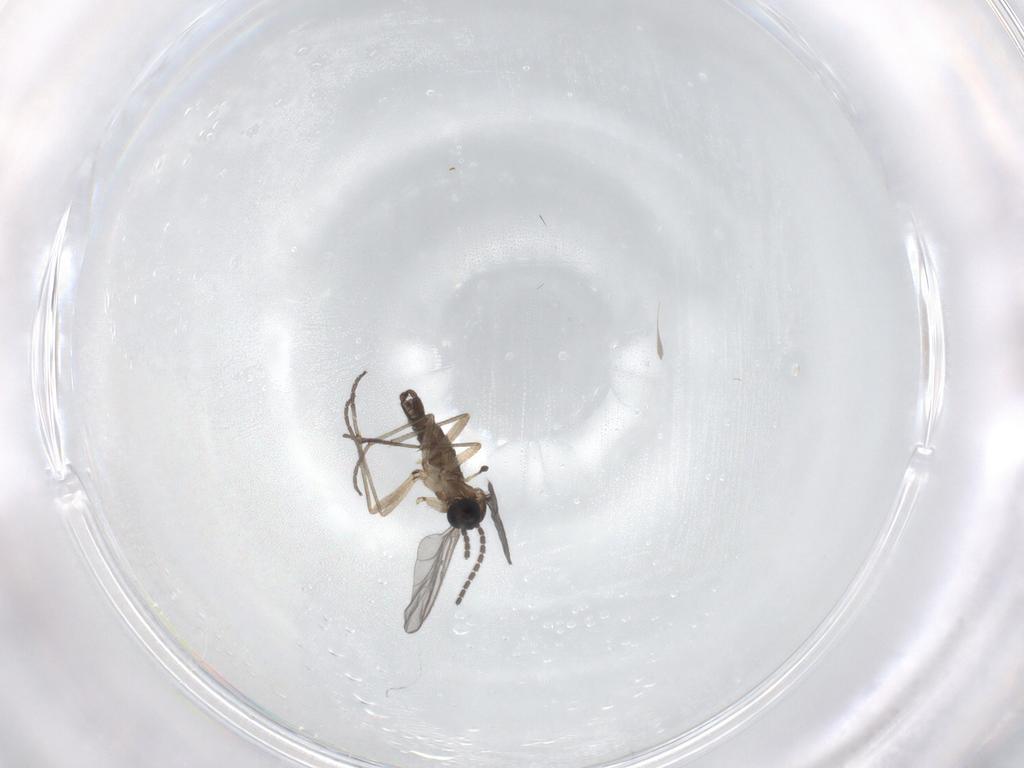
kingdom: Animalia
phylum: Arthropoda
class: Insecta
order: Diptera
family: Sciaridae
